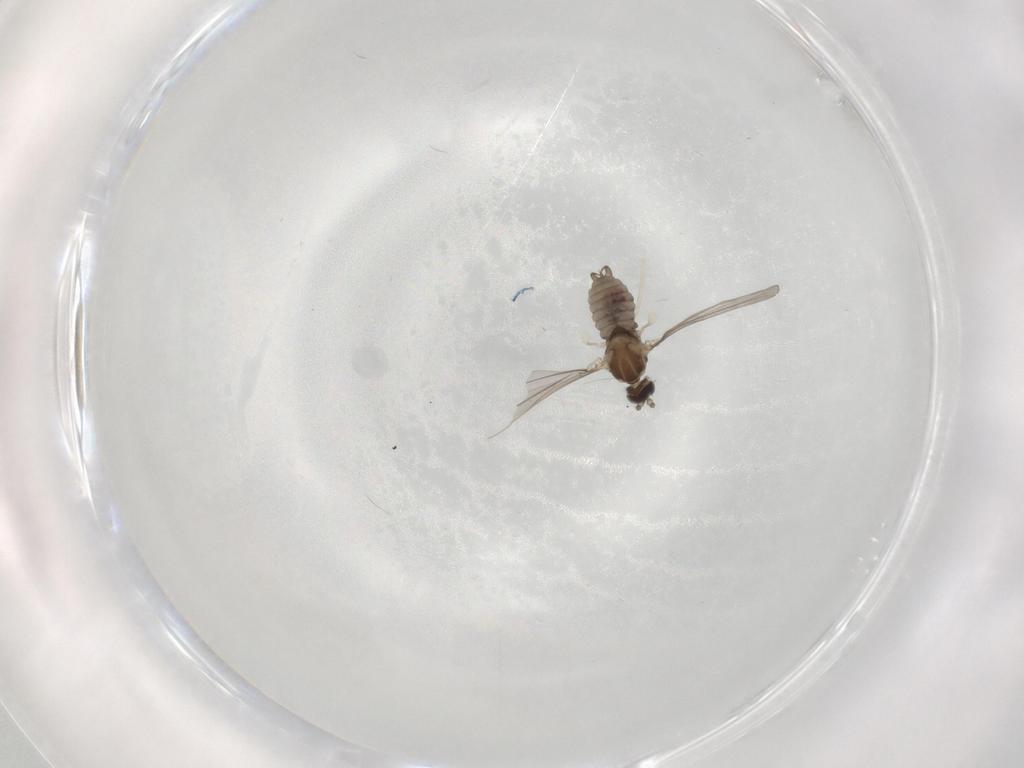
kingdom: Animalia
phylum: Arthropoda
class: Insecta
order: Diptera
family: Cecidomyiidae
